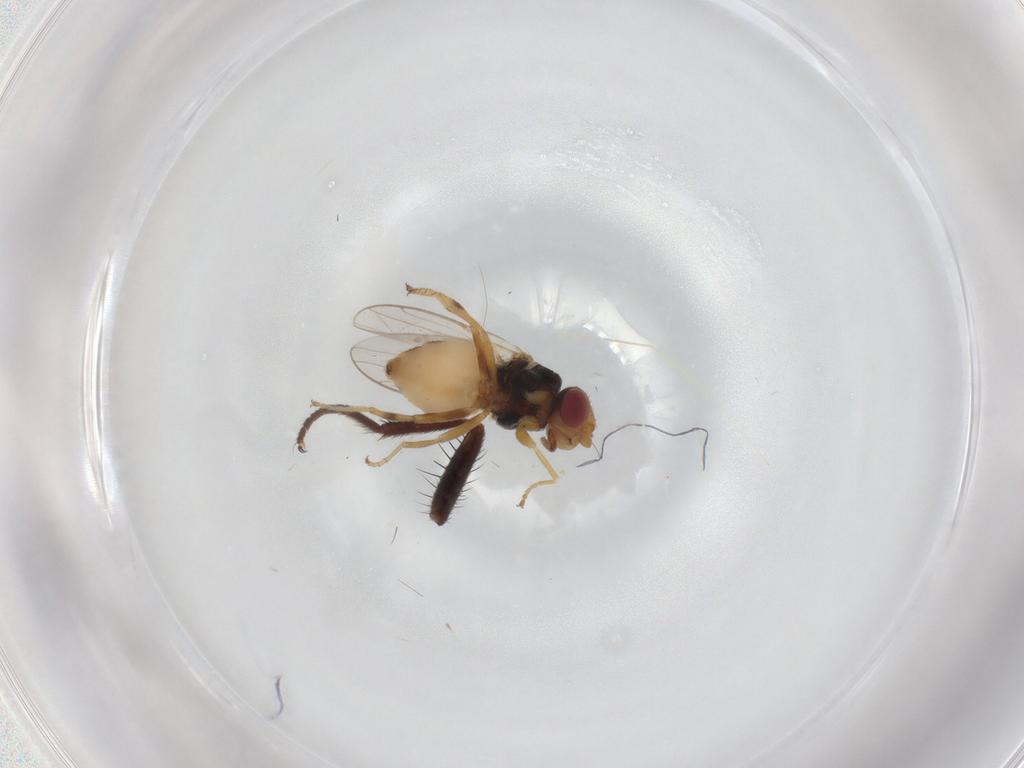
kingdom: Animalia
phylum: Arthropoda
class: Insecta
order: Diptera
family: Chloropidae
